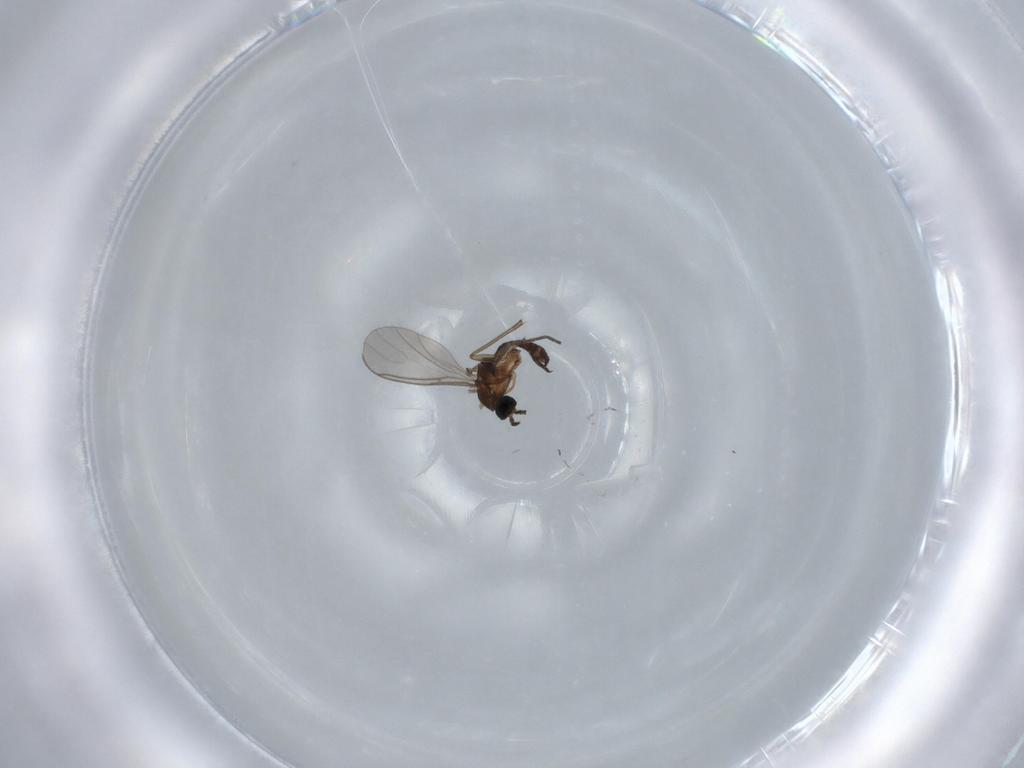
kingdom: Animalia
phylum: Arthropoda
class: Insecta
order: Diptera
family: Sciaridae
